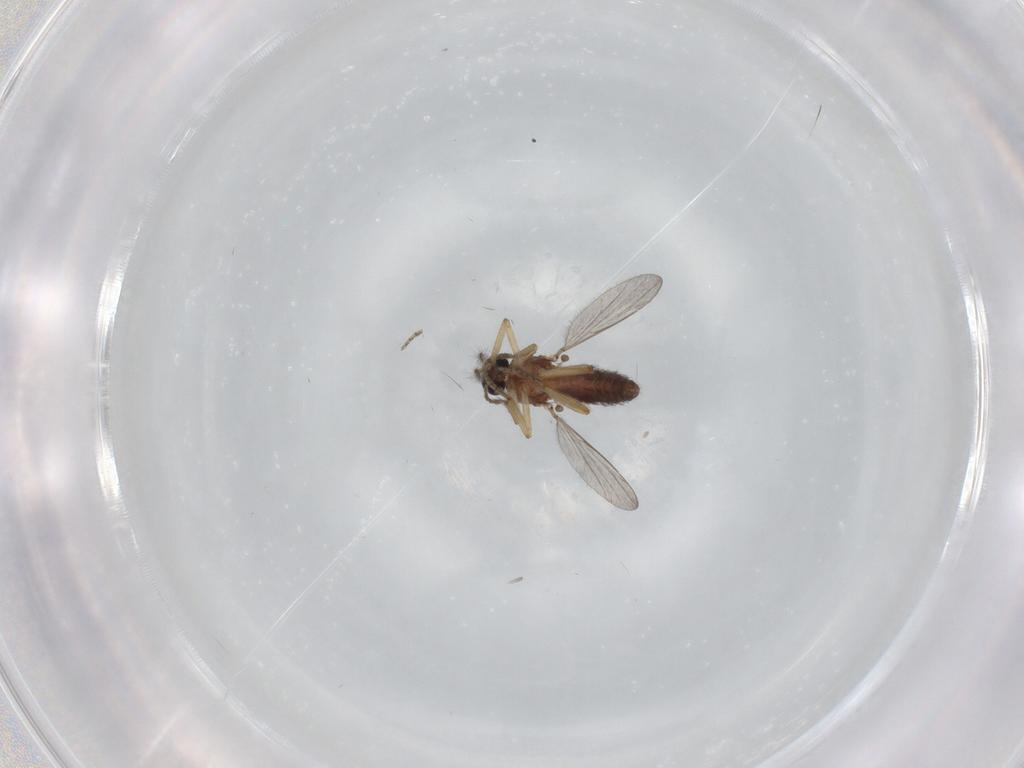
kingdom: Animalia
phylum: Arthropoda
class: Insecta
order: Diptera
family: Ceratopogonidae
